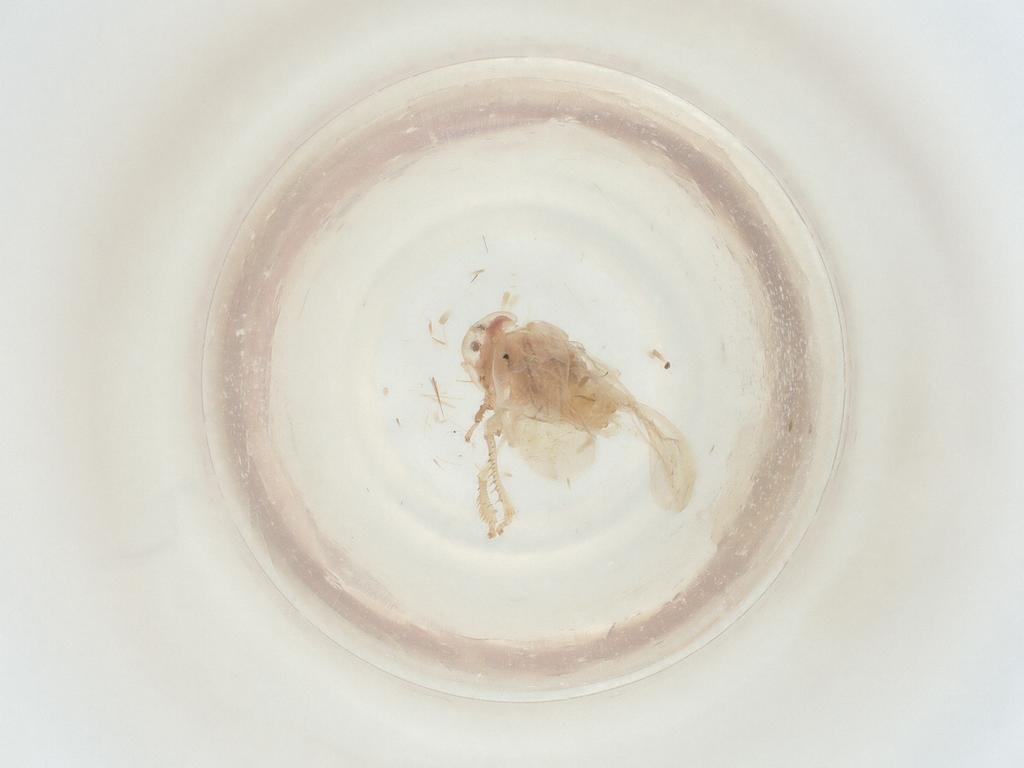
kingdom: Animalia
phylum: Arthropoda
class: Insecta
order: Hemiptera
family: Cicadellidae
